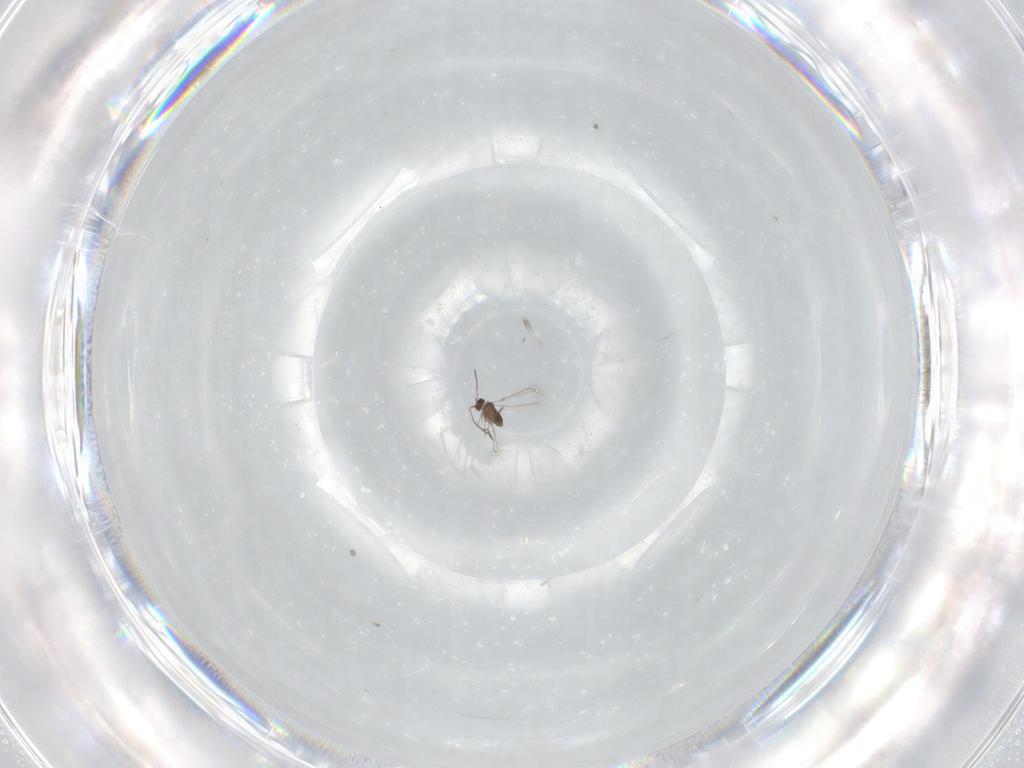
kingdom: Animalia
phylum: Arthropoda
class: Insecta
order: Hymenoptera
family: Mymaridae
